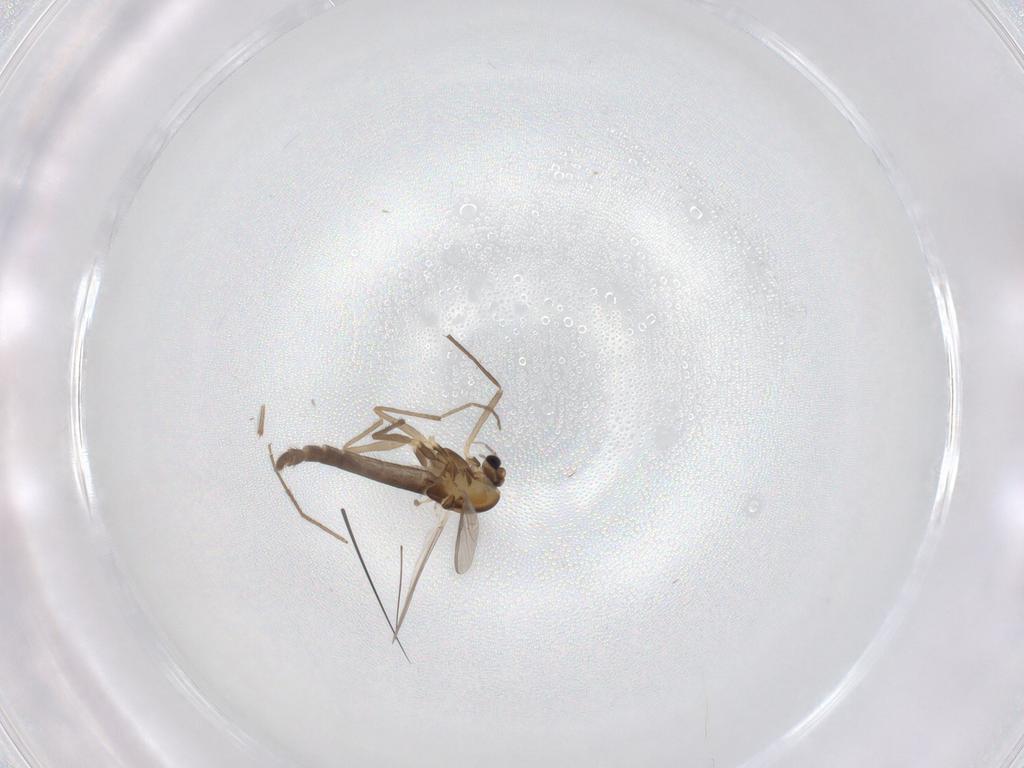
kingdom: Animalia
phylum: Arthropoda
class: Insecta
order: Diptera
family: Chironomidae
